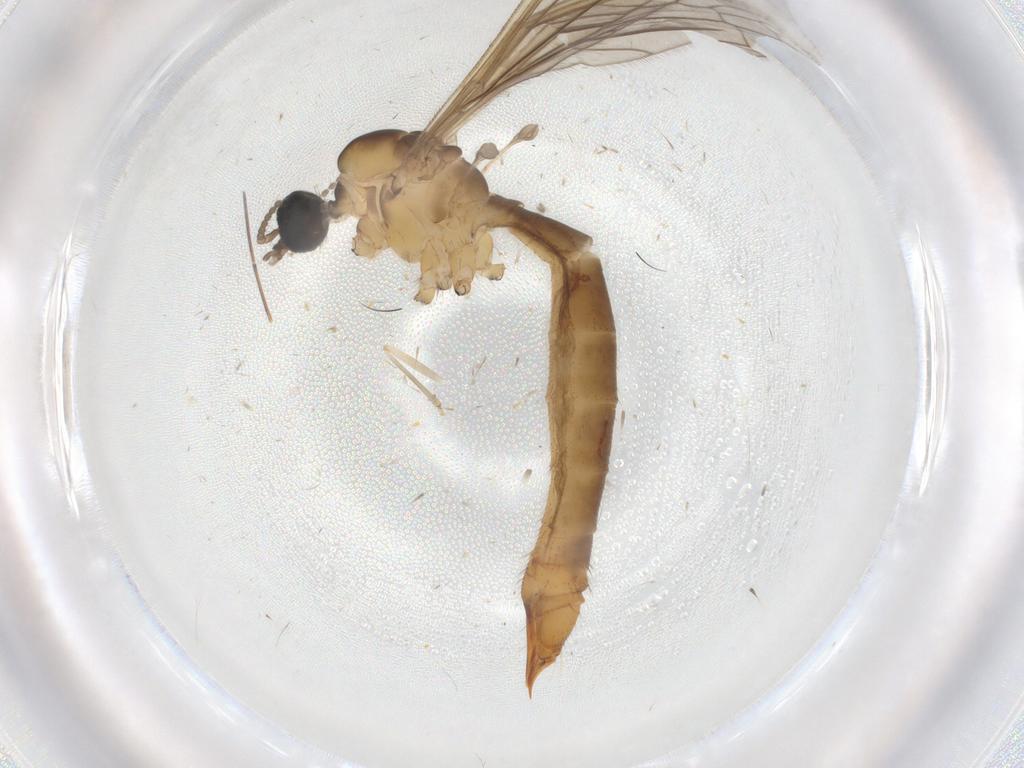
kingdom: Animalia
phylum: Arthropoda
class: Insecta
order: Diptera
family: Limoniidae
